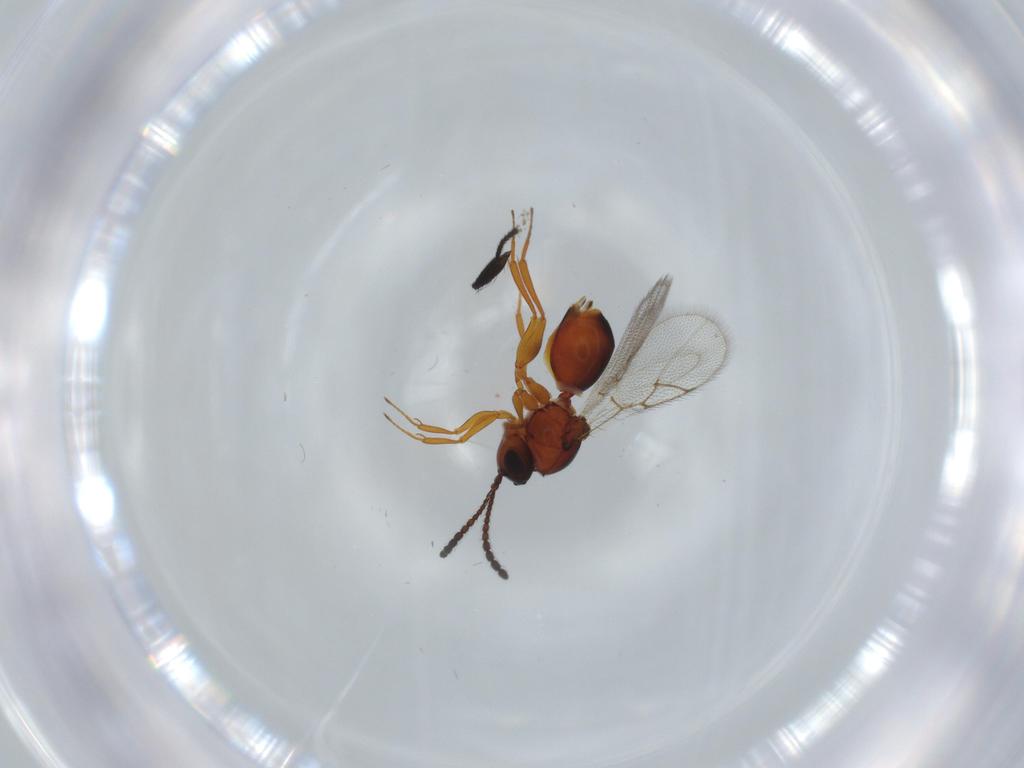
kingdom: Animalia
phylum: Arthropoda
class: Insecta
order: Hymenoptera
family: Figitidae
